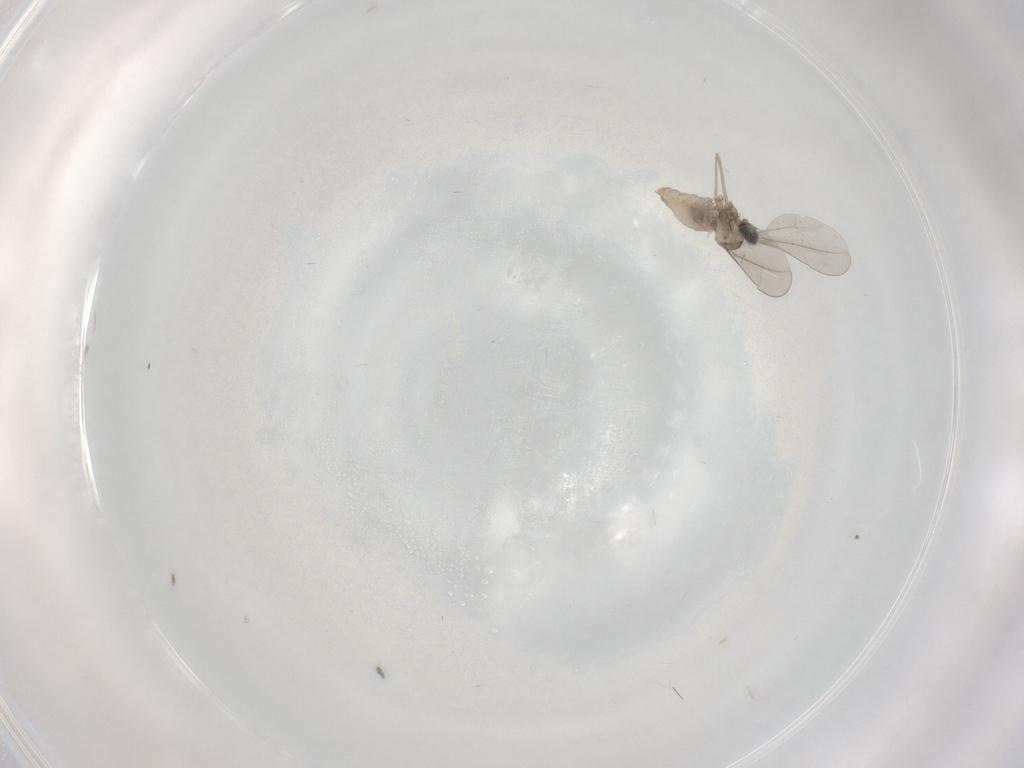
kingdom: Animalia
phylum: Arthropoda
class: Insecta
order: Diptera
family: Cecidomyiidae
